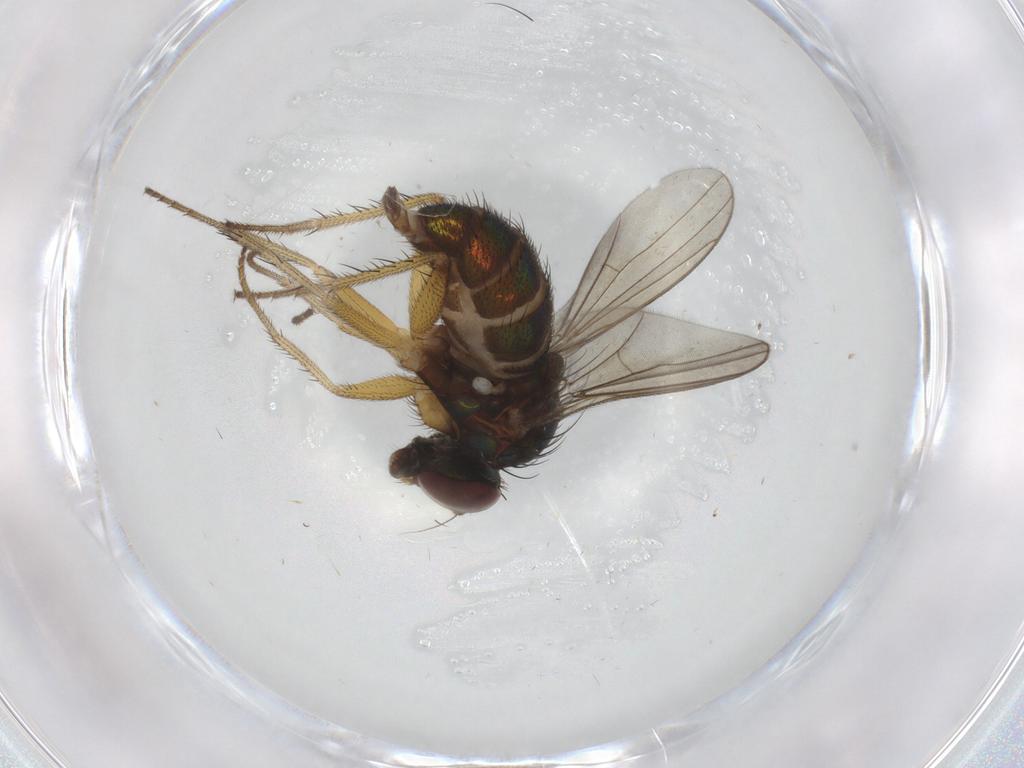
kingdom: Animalia
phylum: Arthropoda
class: Insecta
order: Diptera
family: Dolichopodidae
